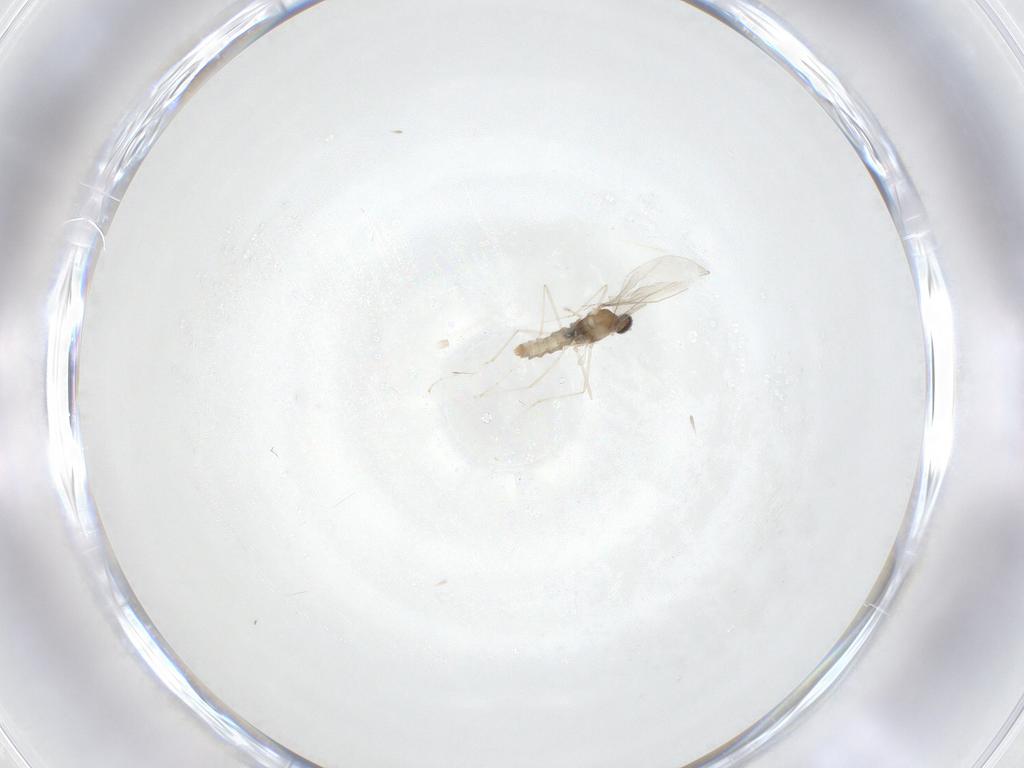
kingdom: Animalia
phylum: Arthropoda
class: Insecta
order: Diptera
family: Cecidomyiidae
